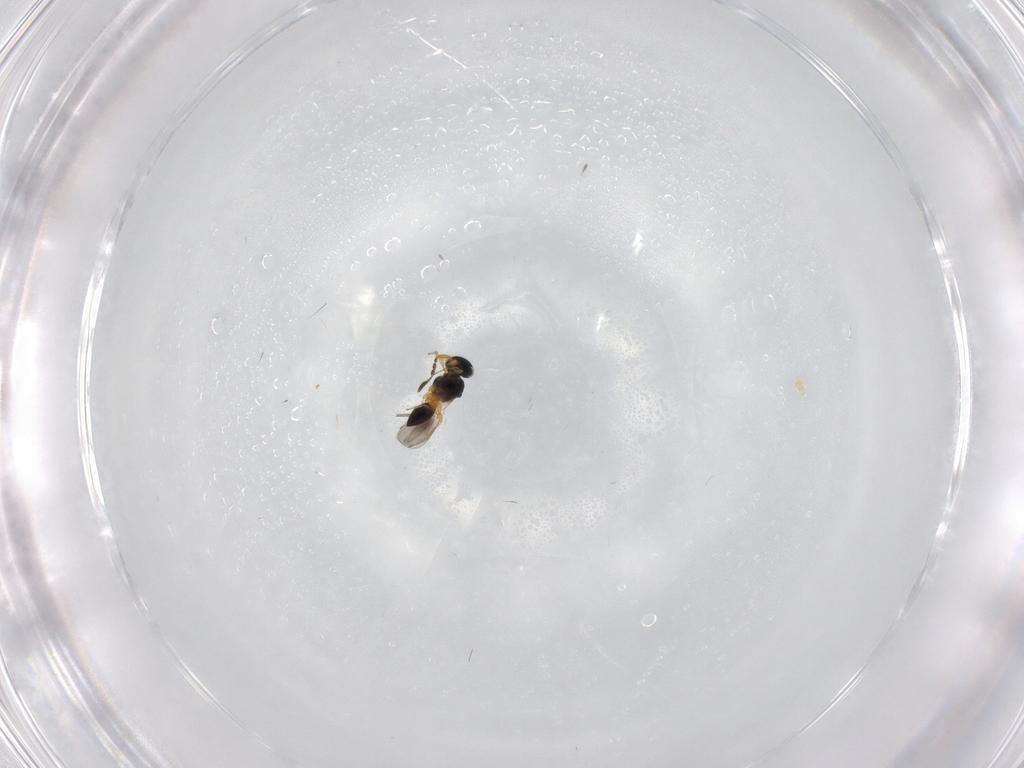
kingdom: Animalia
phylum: Arthropoda
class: Insecta
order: Hymenoptera
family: Platygastridae
